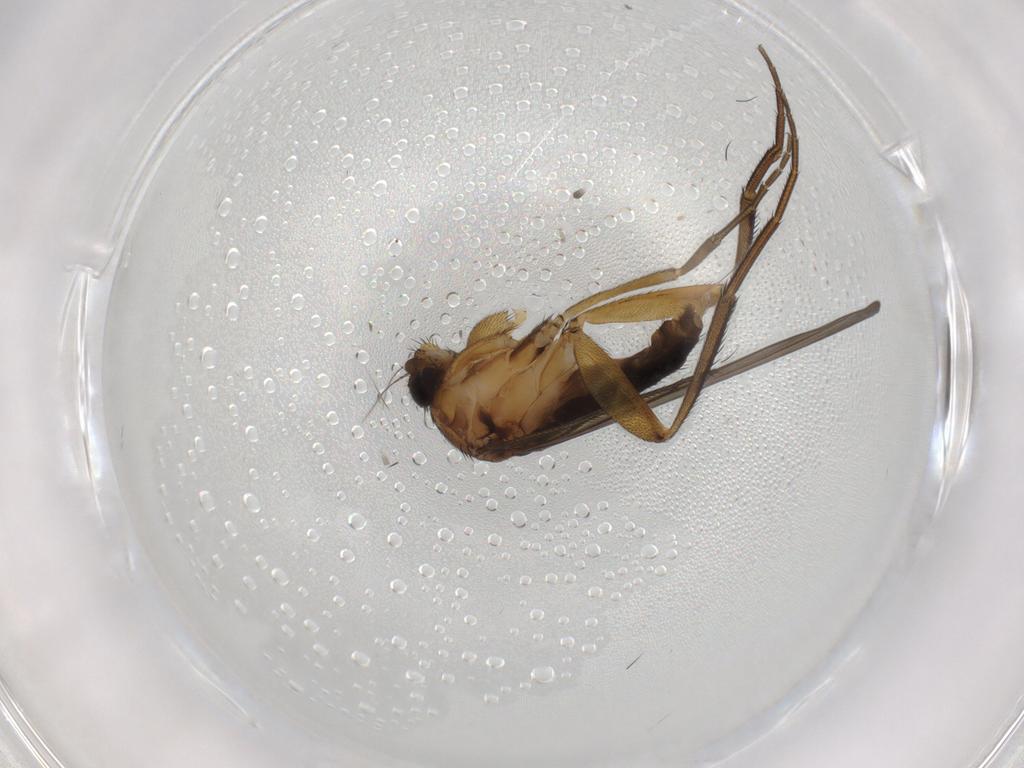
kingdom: Animalia
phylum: Arthropoda
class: Insecta
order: Diptera
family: Phoridae
